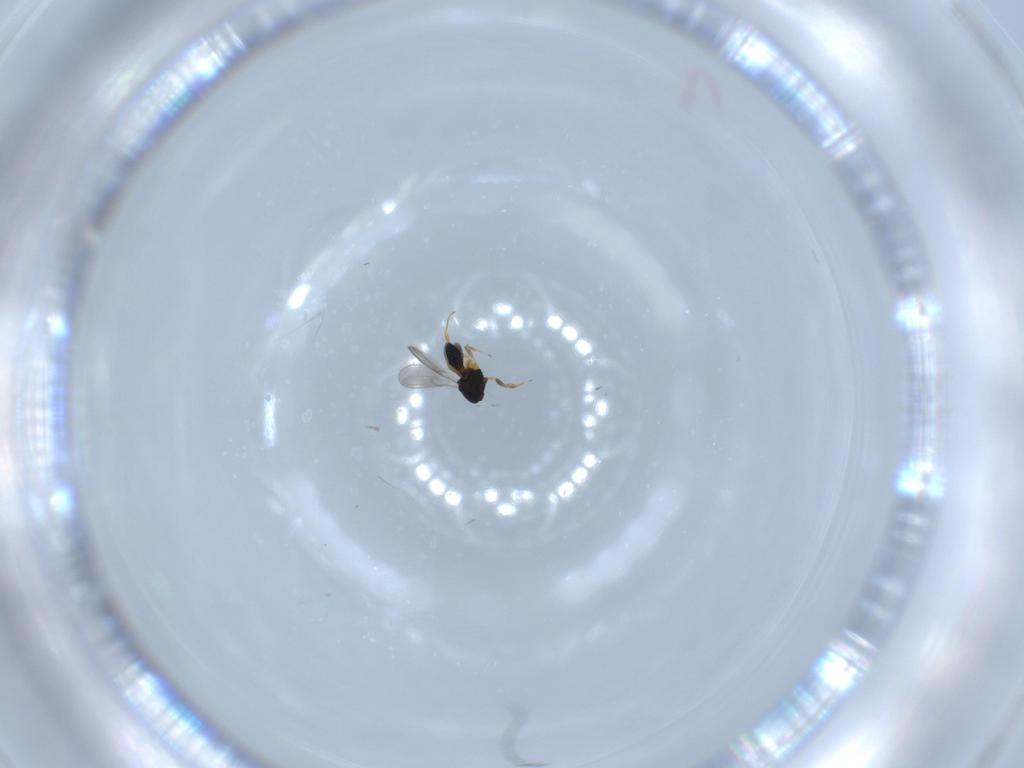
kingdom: Animalia
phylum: Arthropoda
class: Insecta
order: Hymenoptera
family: Scelionidae
